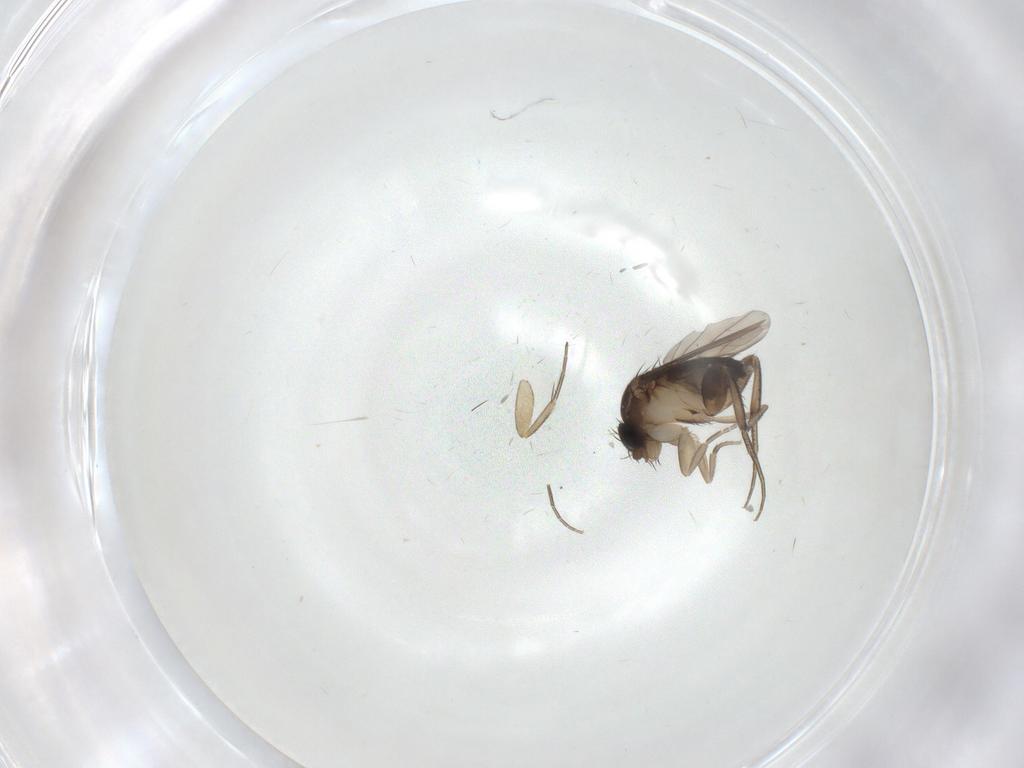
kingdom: Animalia
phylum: Arthropoda
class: Insecta
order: Diptera
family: Phoridae
